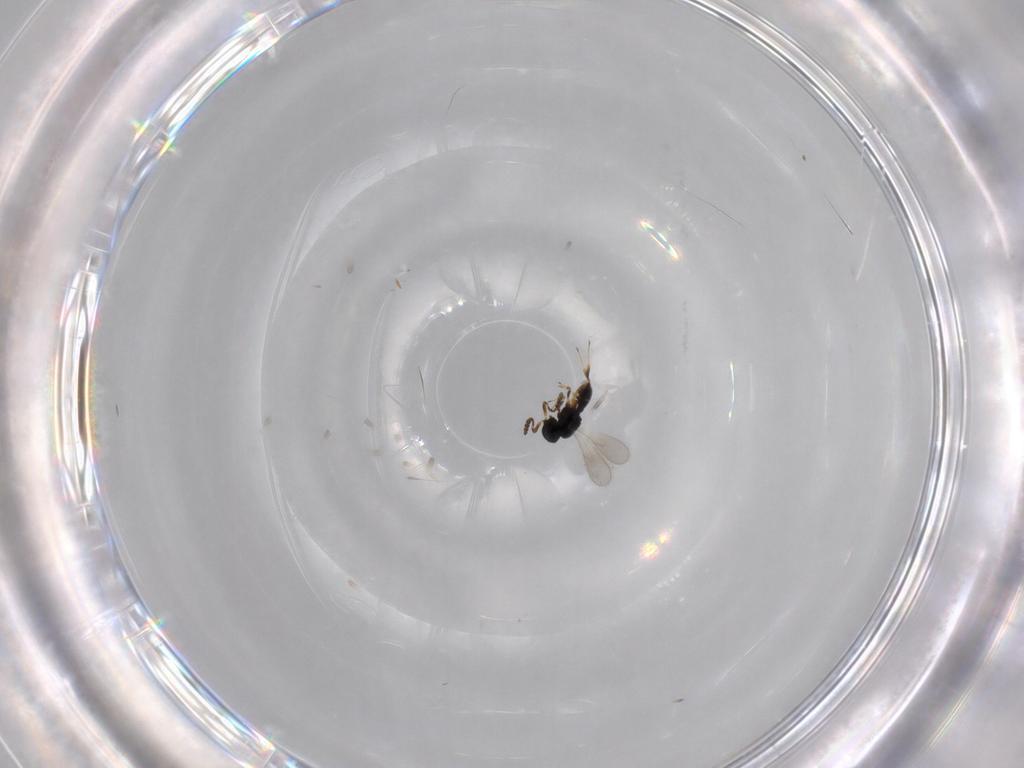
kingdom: Animalia
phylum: Arthropoda
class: Insecta
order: Hymenoptera
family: Scelionidae
